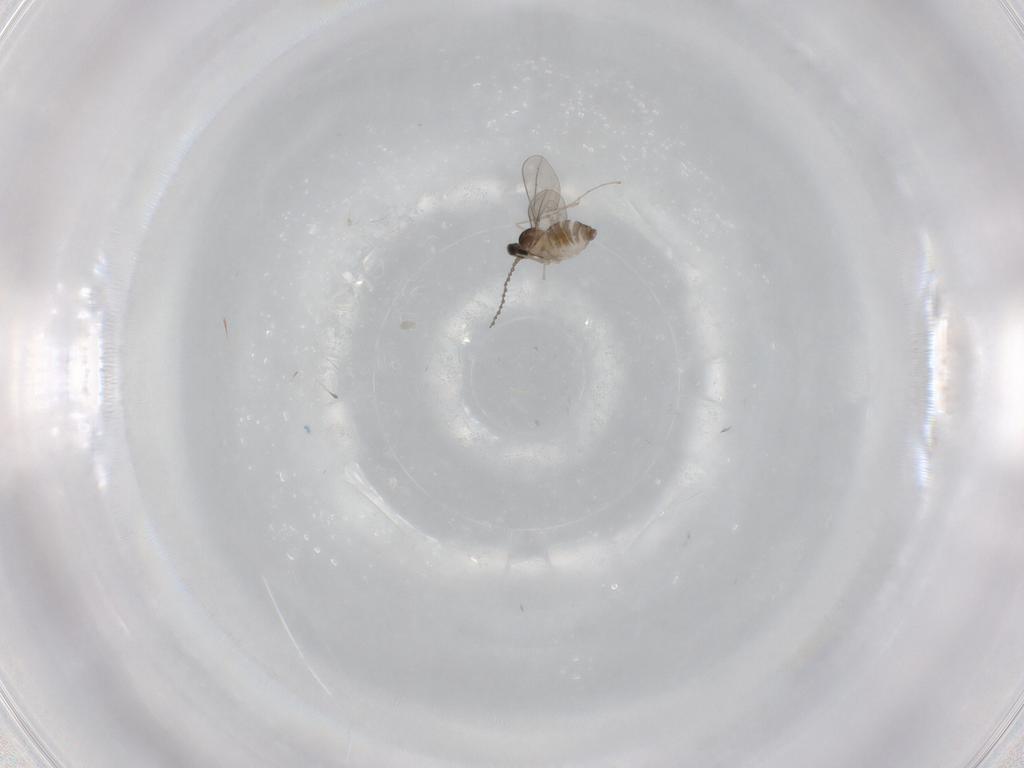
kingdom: Animalia
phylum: Arthropoda
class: Insecta
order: Diptera
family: Cecidomyiidae
